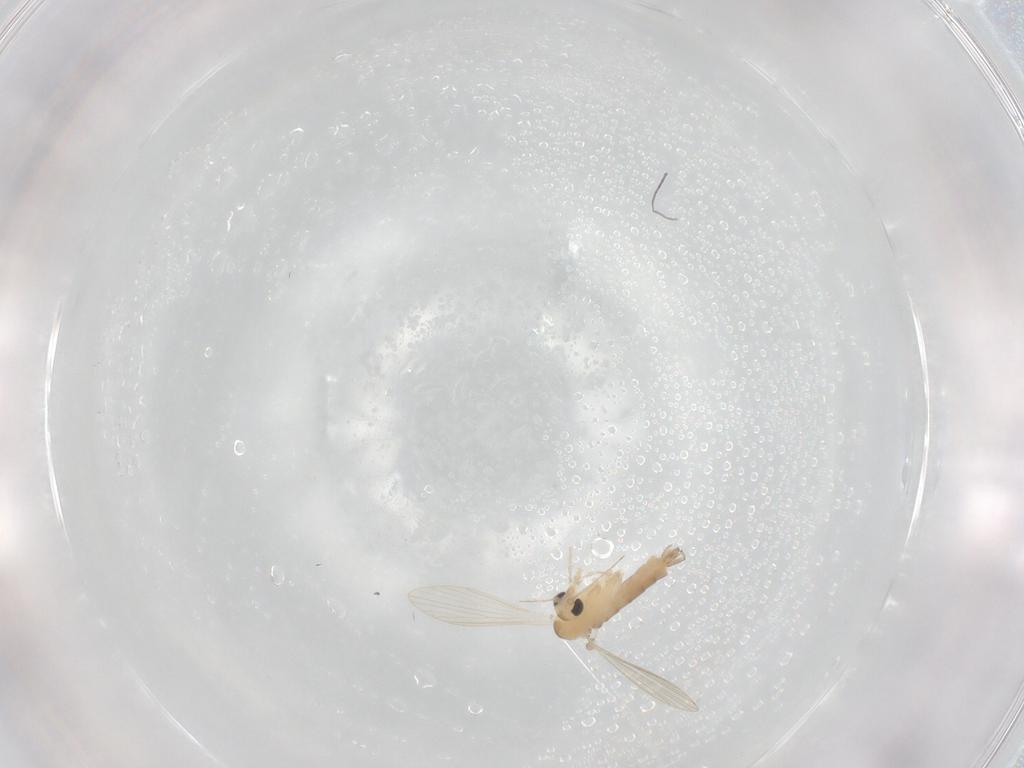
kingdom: Animalia
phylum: Arthropoda
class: Insecta
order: Diptera
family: Psychodidae
